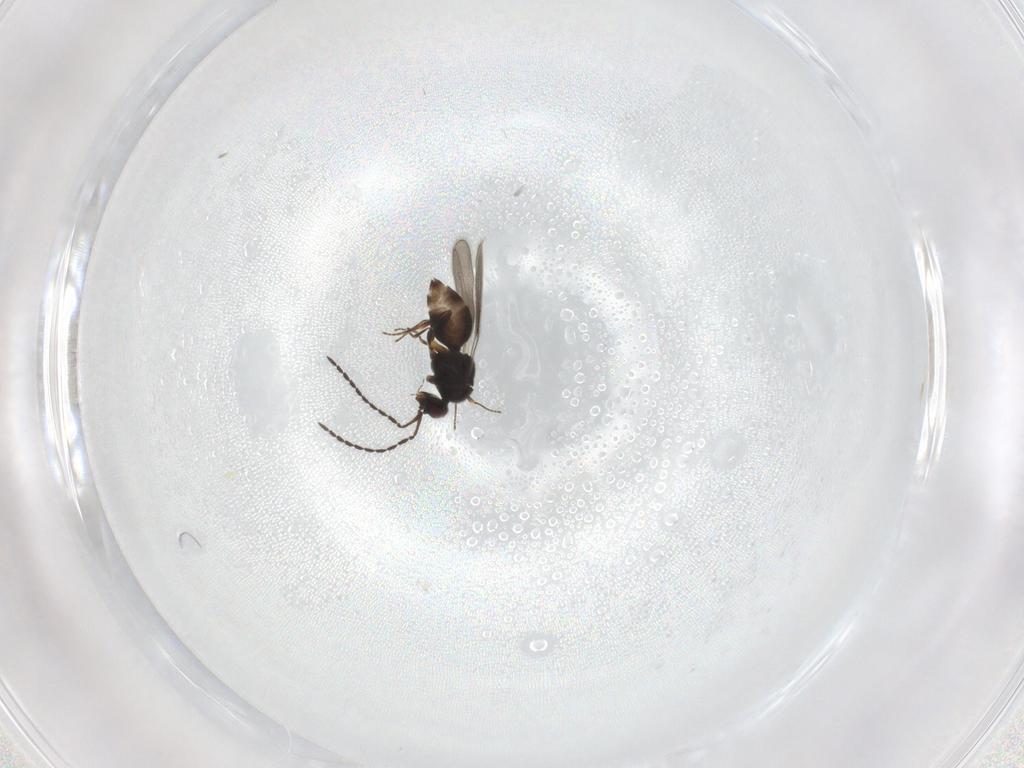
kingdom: Animalia
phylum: Arthropoda
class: Insecta
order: Hymenoptera
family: Ceraphronidae
